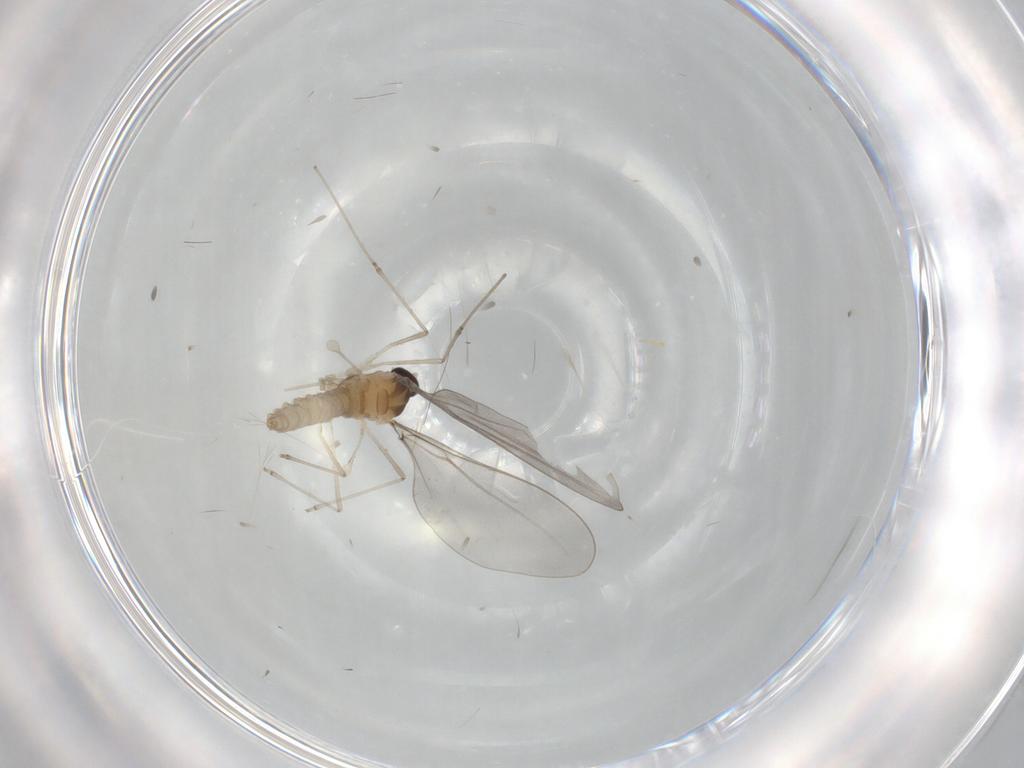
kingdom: Animalia
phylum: Arthropoda
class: Insecta
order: Diptera
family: Cecidomyiidae
